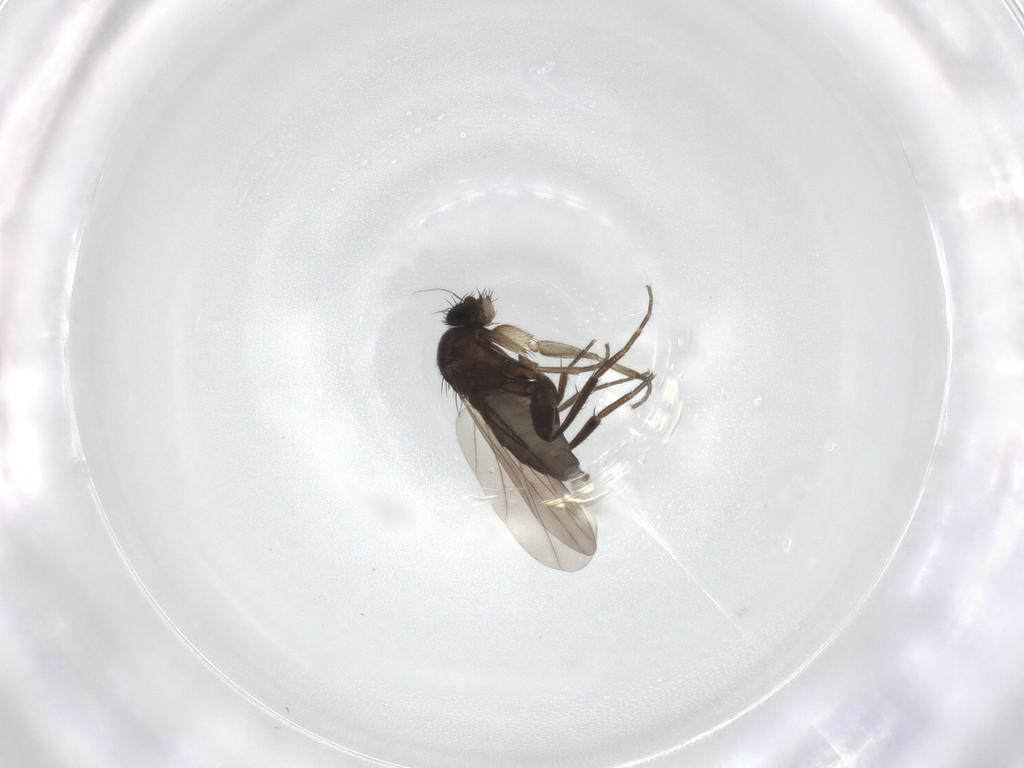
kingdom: Animalia
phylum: Arthropoda
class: Insecta
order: Diptera
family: Phoridae
